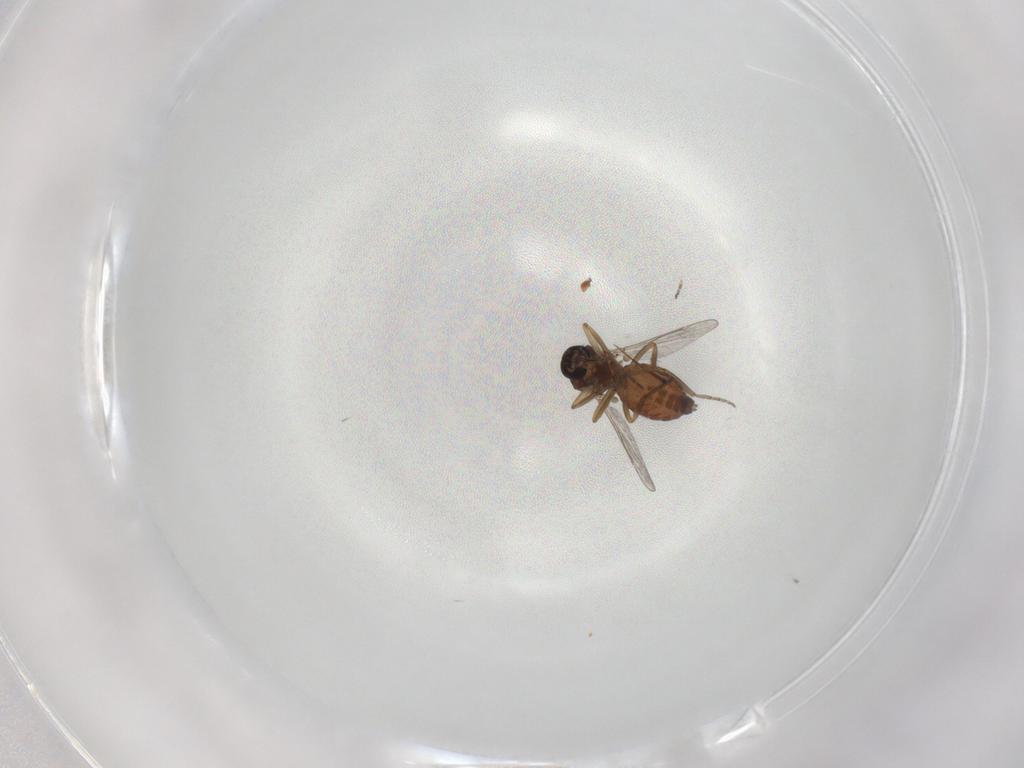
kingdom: Animalia
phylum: Arthropoda
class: Insecta
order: Diptera
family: Ceratopogonidae
